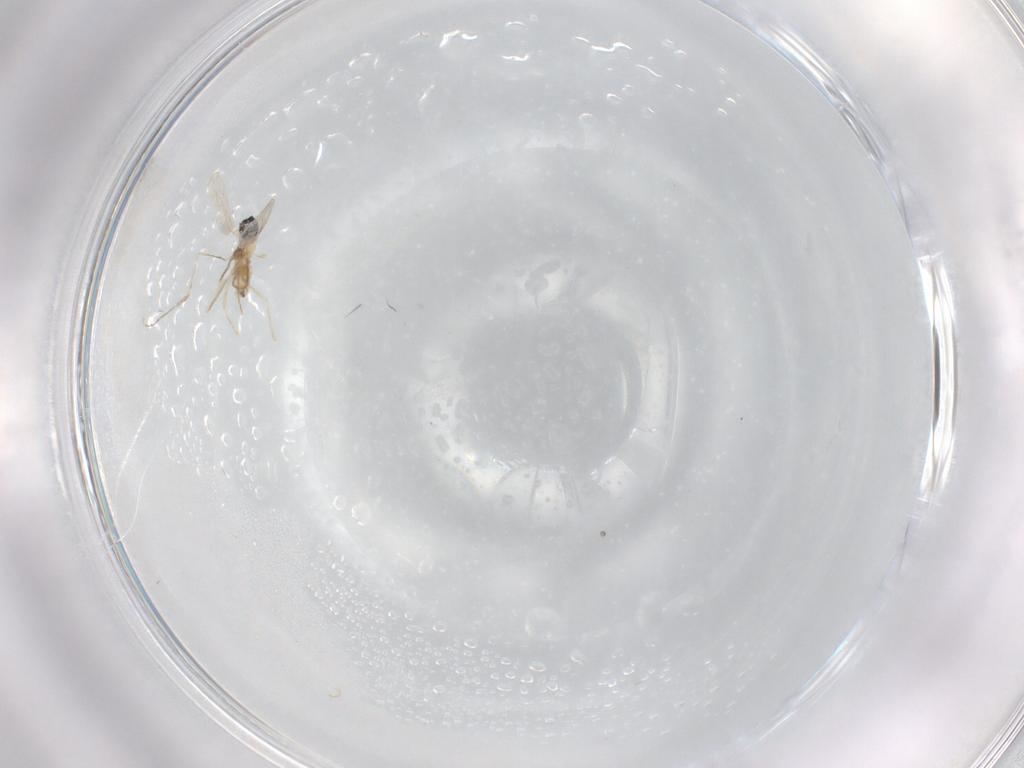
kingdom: Animalia
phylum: Arthropoda
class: Insecta
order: Diptera
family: Cecidomyiidae
